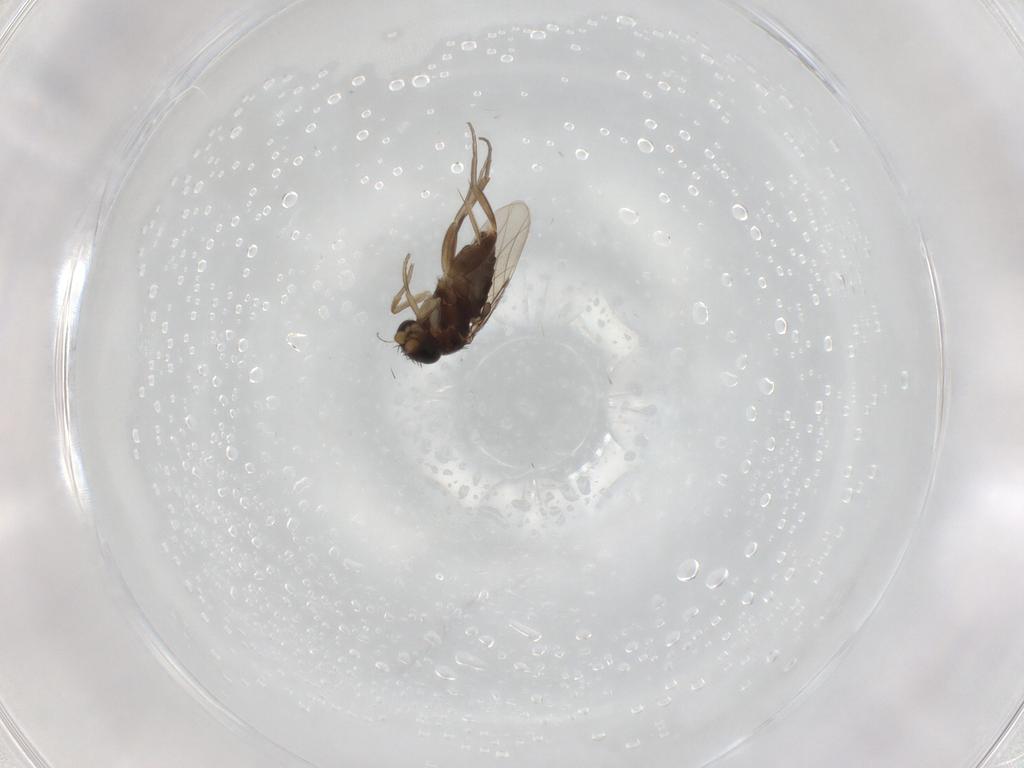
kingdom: Animalia
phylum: Arthropoda
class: Insecta
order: Diptera
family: Phoridae
